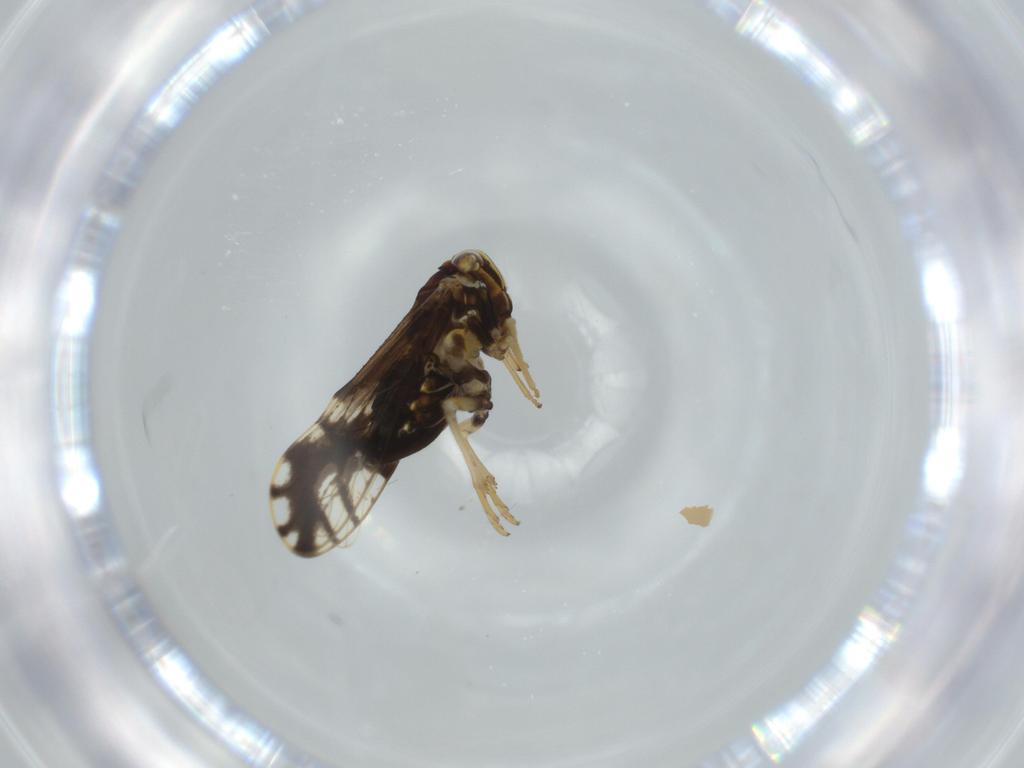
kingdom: Animalia
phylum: Arthropoda
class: Insecta
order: Hemiptera
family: Delphacidae
